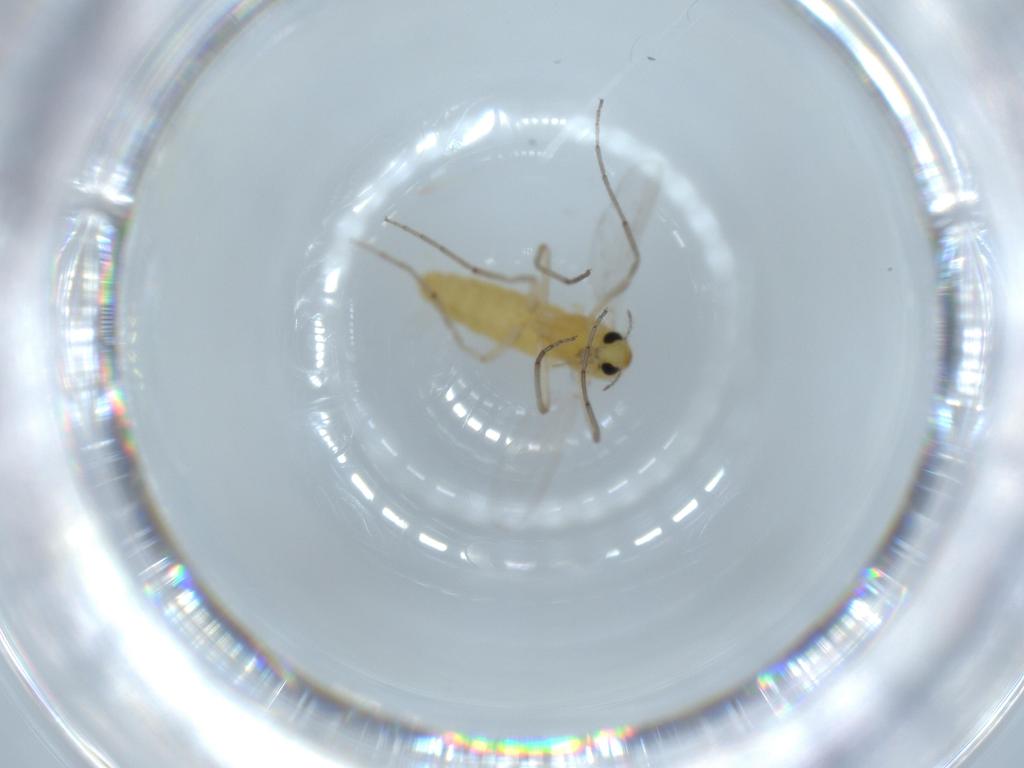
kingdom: Animalia
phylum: Arthropoda
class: Insecta
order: Diptera
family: Chironomidae
